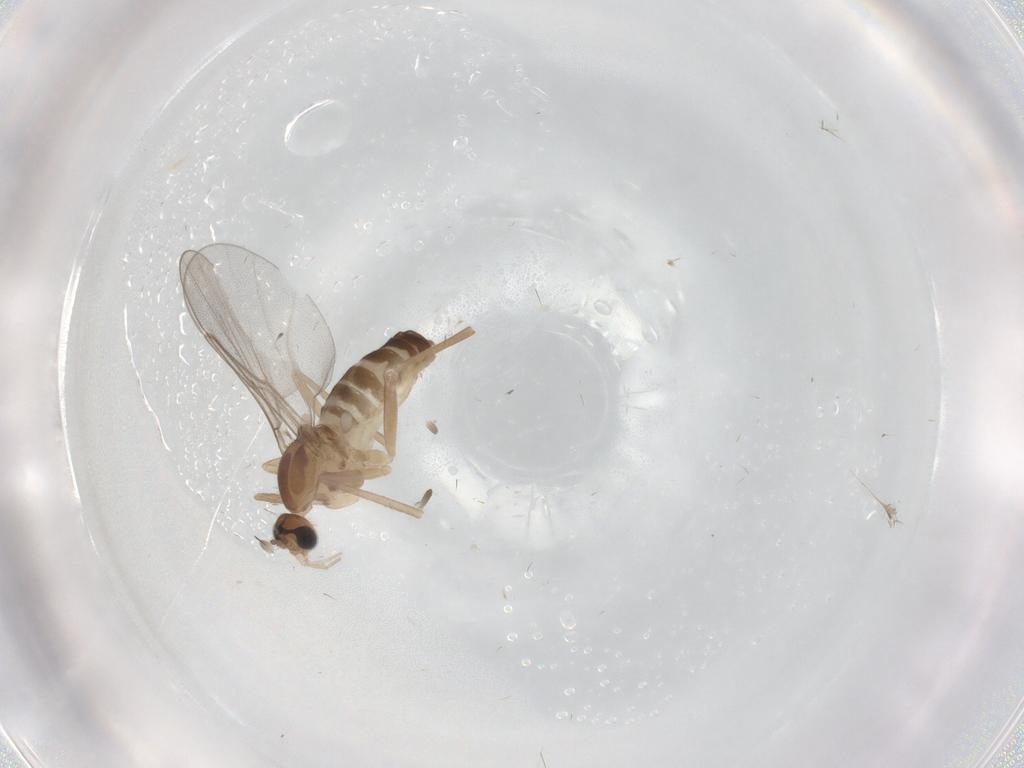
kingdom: Animalia
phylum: Arthropoda
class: Insecta
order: Diptera
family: Cecidomyiidae
